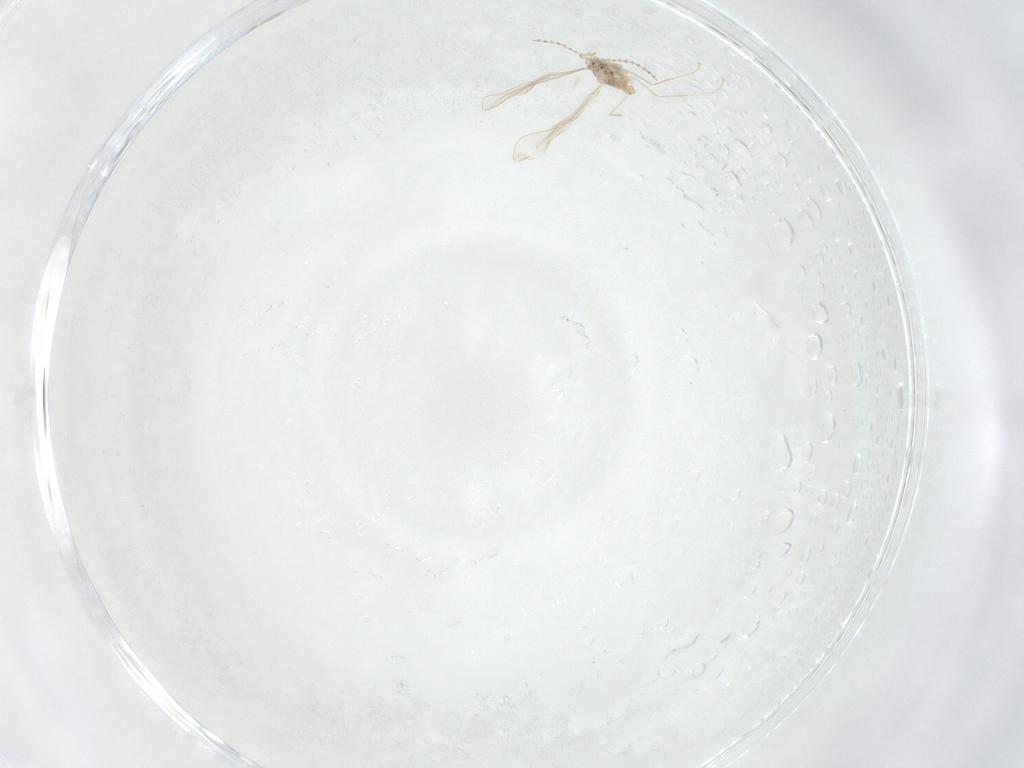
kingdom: Animalia
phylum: Arthropoda
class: Insecta
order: Diptera
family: Cecidomyiidae
